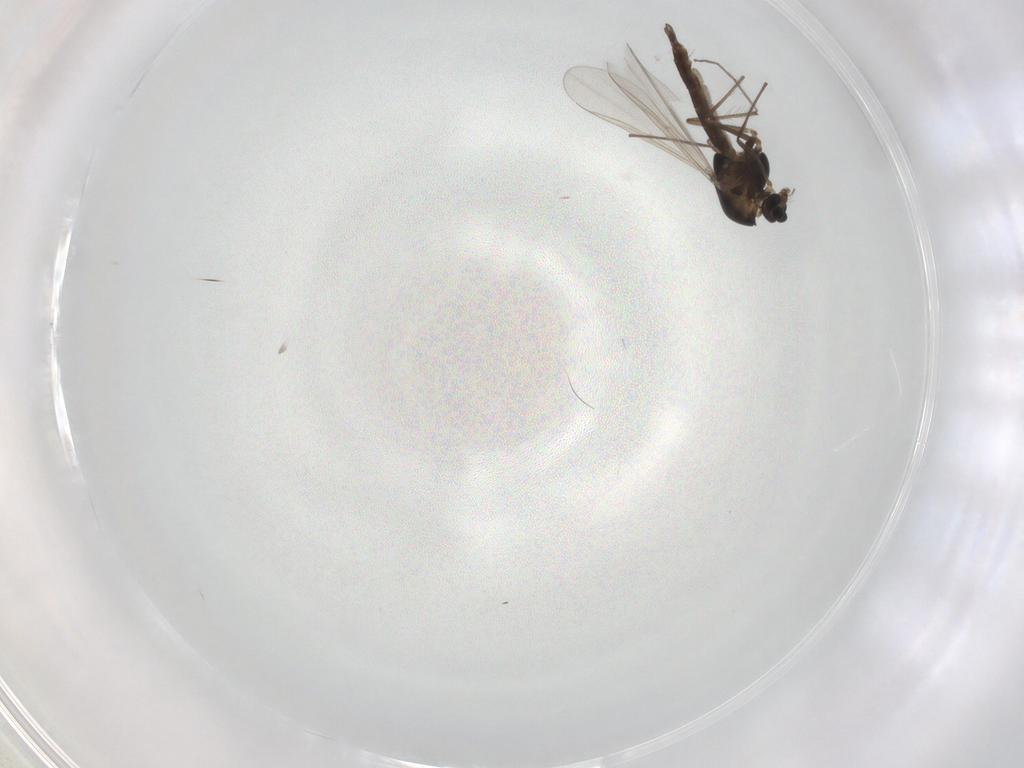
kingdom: Animalia
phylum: Arthropoda
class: Insecta
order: Diptera
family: Chironomidae
